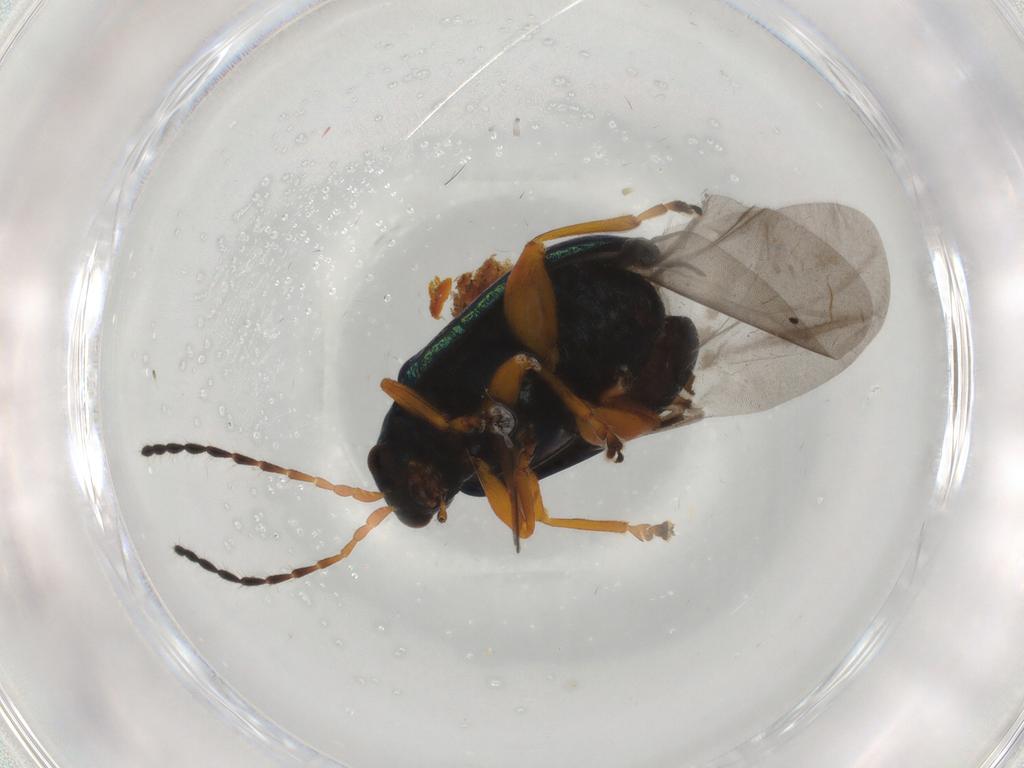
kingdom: Animalia
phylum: Arthropoda
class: Insecta
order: Coleoptera
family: Chrysomelidae
